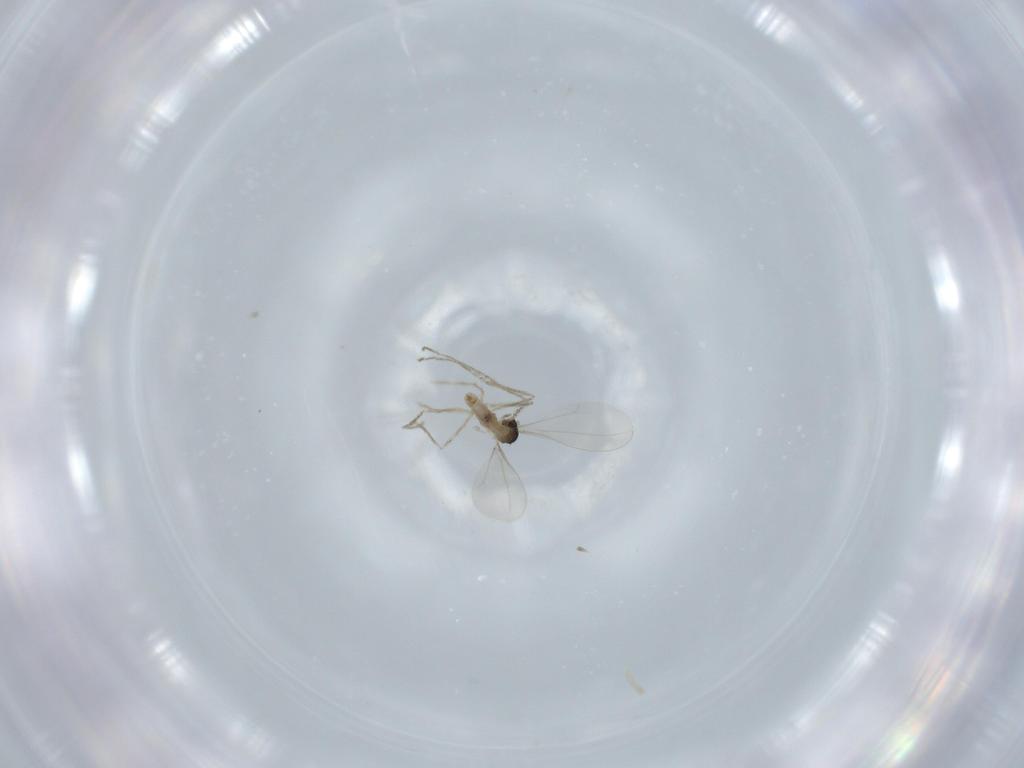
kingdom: Animalia
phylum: Arthropoda
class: Insecta
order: Diptera
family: Cecidomyiidae
